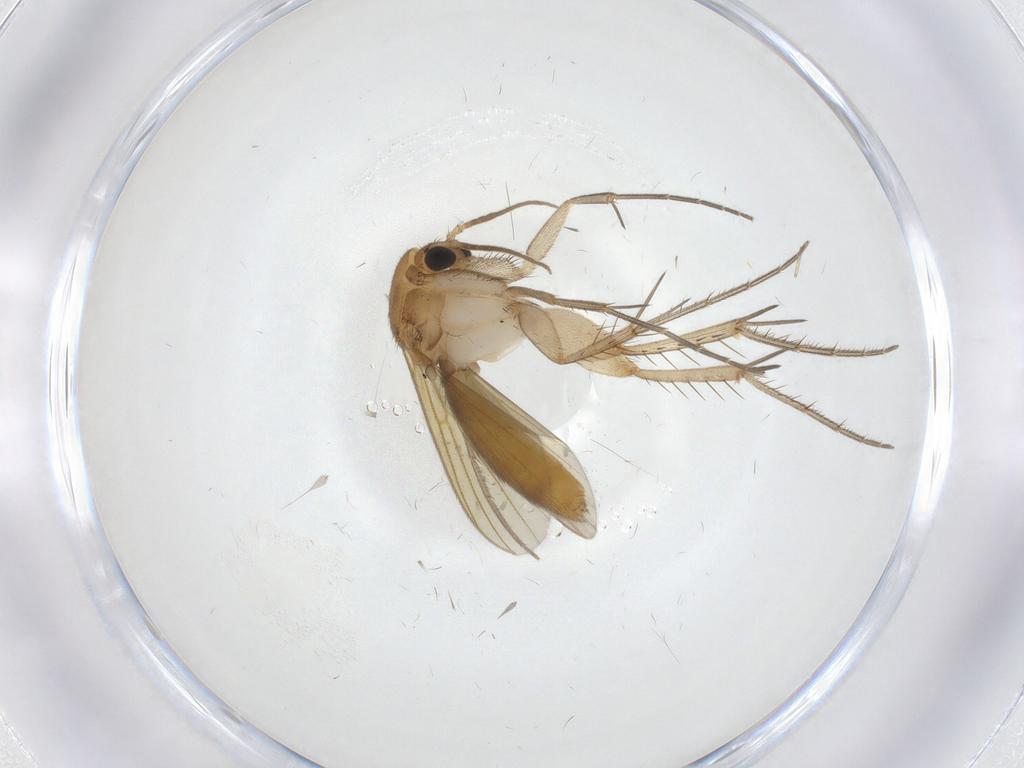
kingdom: Animalia
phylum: Arthropoda
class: Insecta
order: Diptera
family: Mycetophilidae
